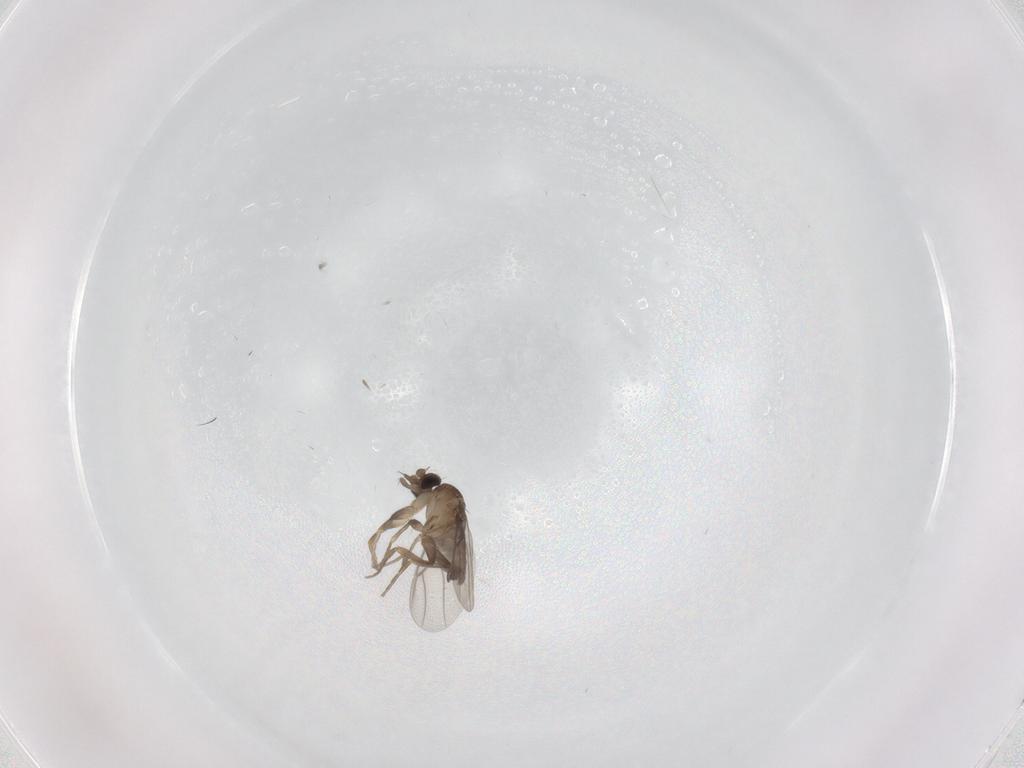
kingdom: Animalia
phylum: Arthropoda
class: Insecta
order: Diptera
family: Phoridae
